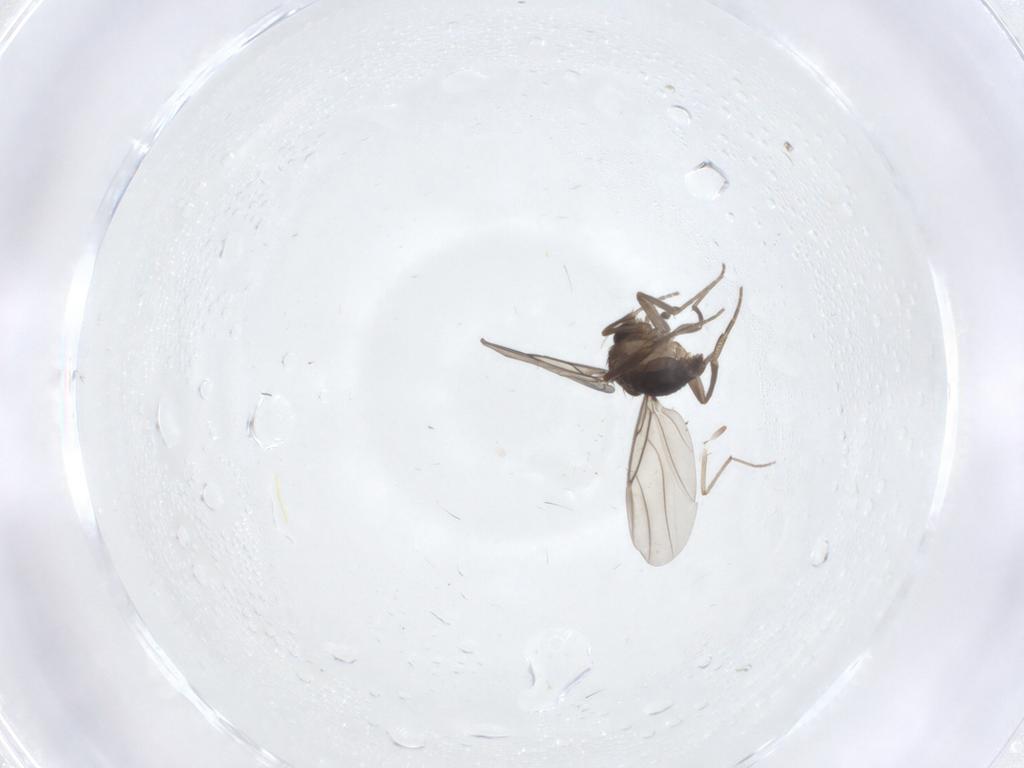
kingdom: Animalia
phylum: Arthropoda
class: Insecta
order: Diptera
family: Phoridae
